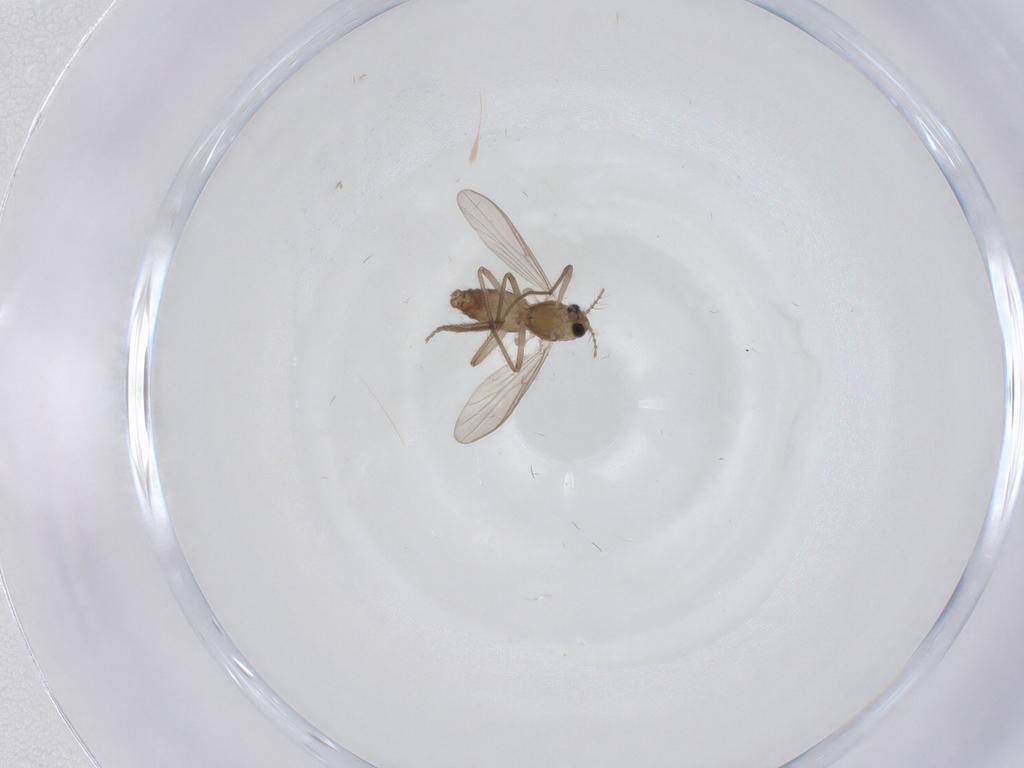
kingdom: Animalia
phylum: Arthropoda
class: Insecta
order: Diptera
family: Chironomidae
